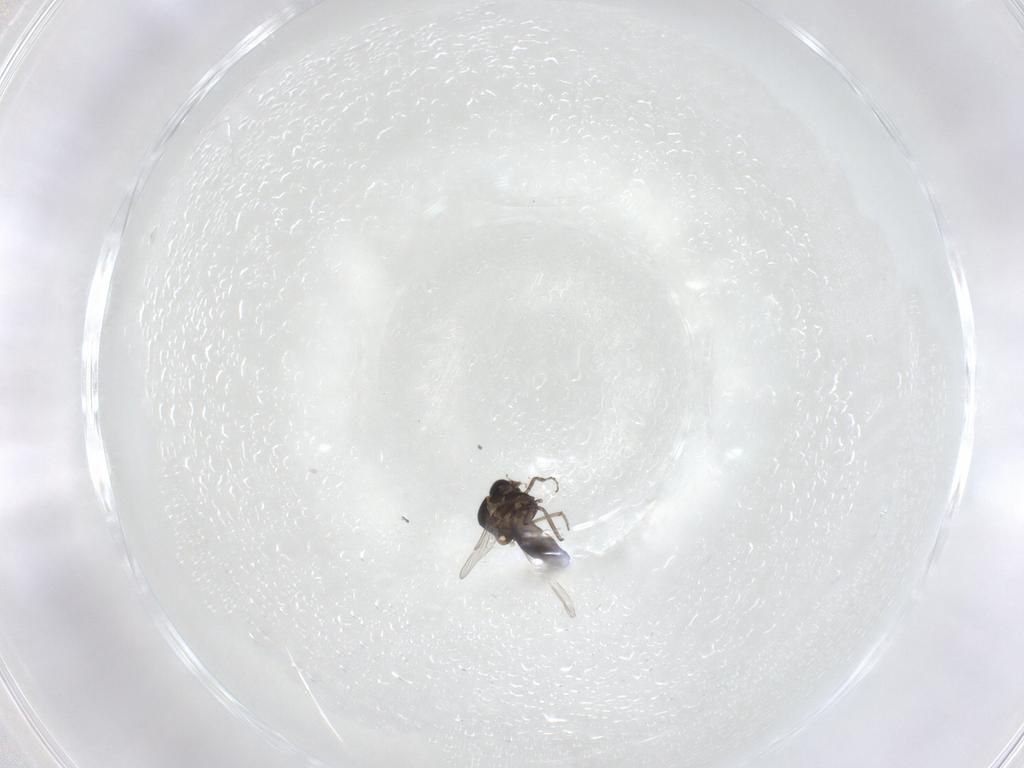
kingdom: Animalia
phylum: Arthropoda
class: Insecta
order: Diptera
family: Ceratopogonidae
